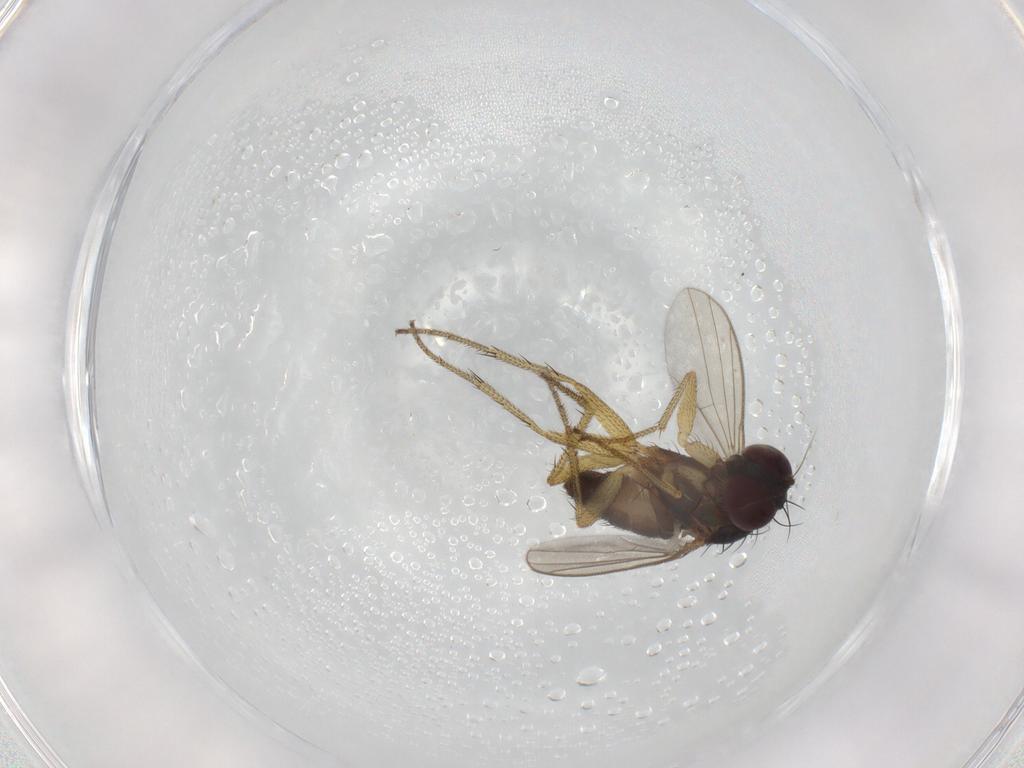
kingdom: Animalia
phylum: Arthropoda
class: Insecta
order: Diptera
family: Dolichopodidae
